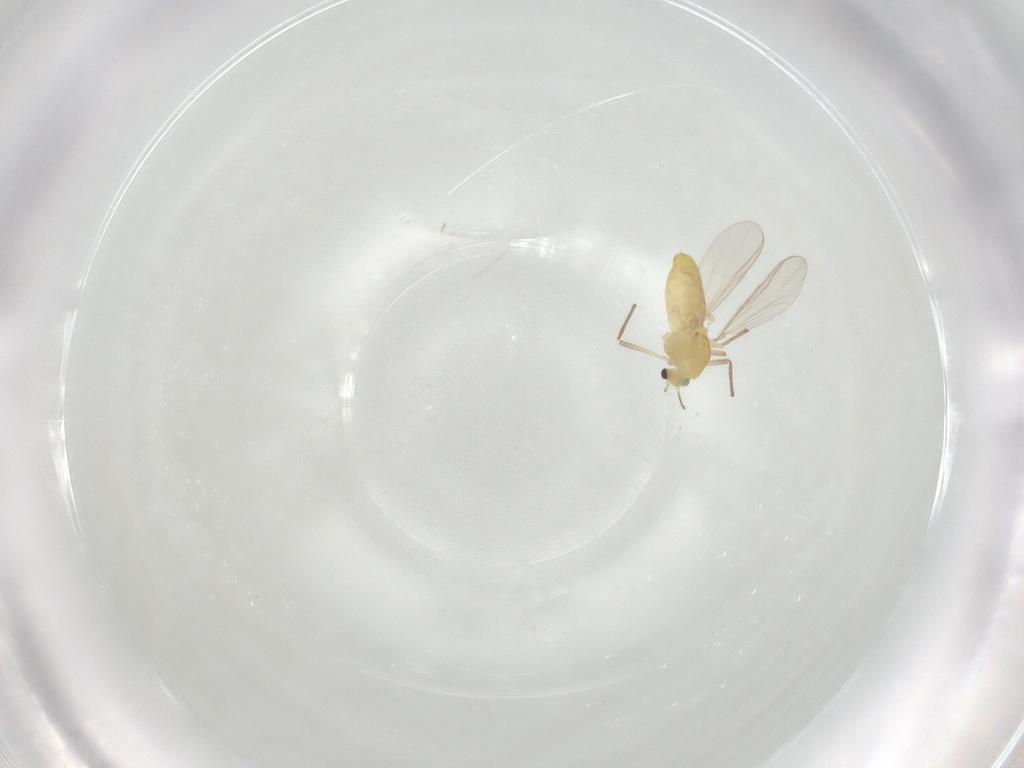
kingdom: Animalia
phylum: Arthropoda
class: Insecta
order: Diptera
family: Chironomidae
